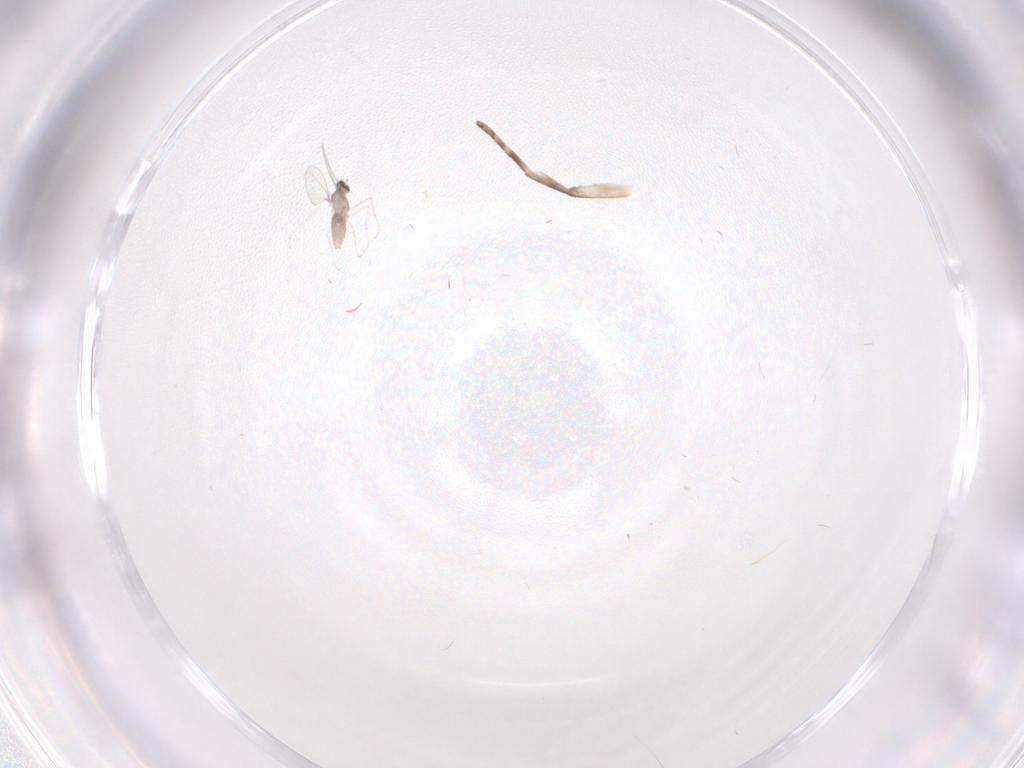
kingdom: Animalia
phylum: Arthropoda
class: Insecta
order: Diptera
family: Cecidomyiidae
